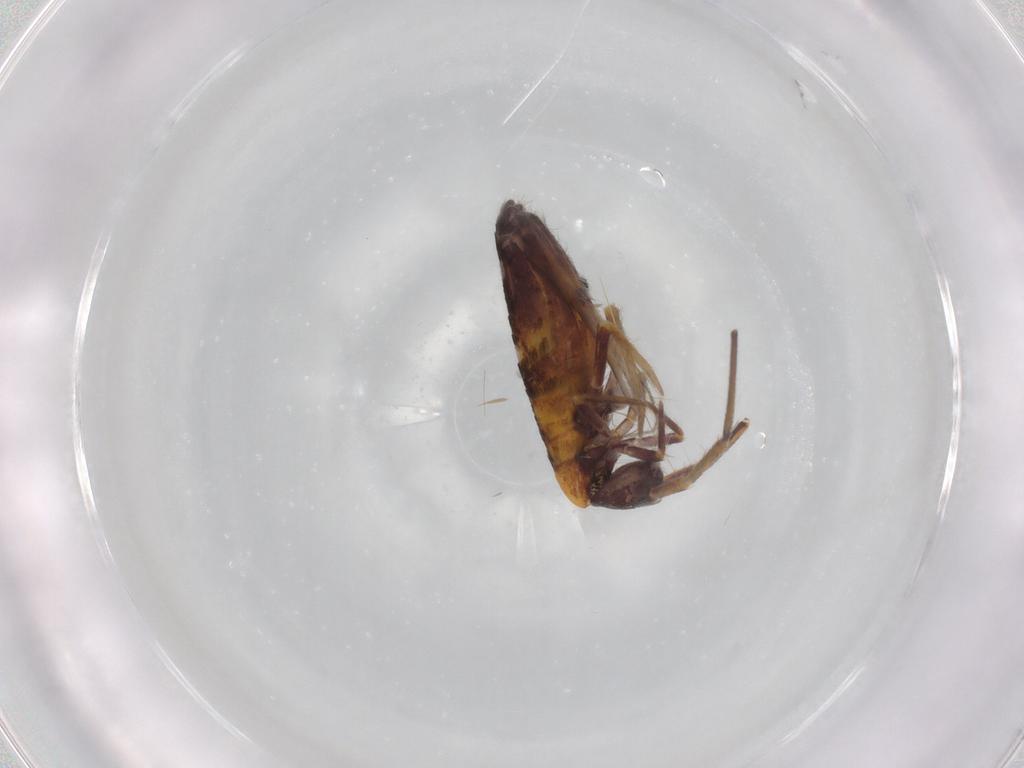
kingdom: Animalia
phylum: Arthropoda
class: Collembola
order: Entomobryomorpha
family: Entomobryidae
